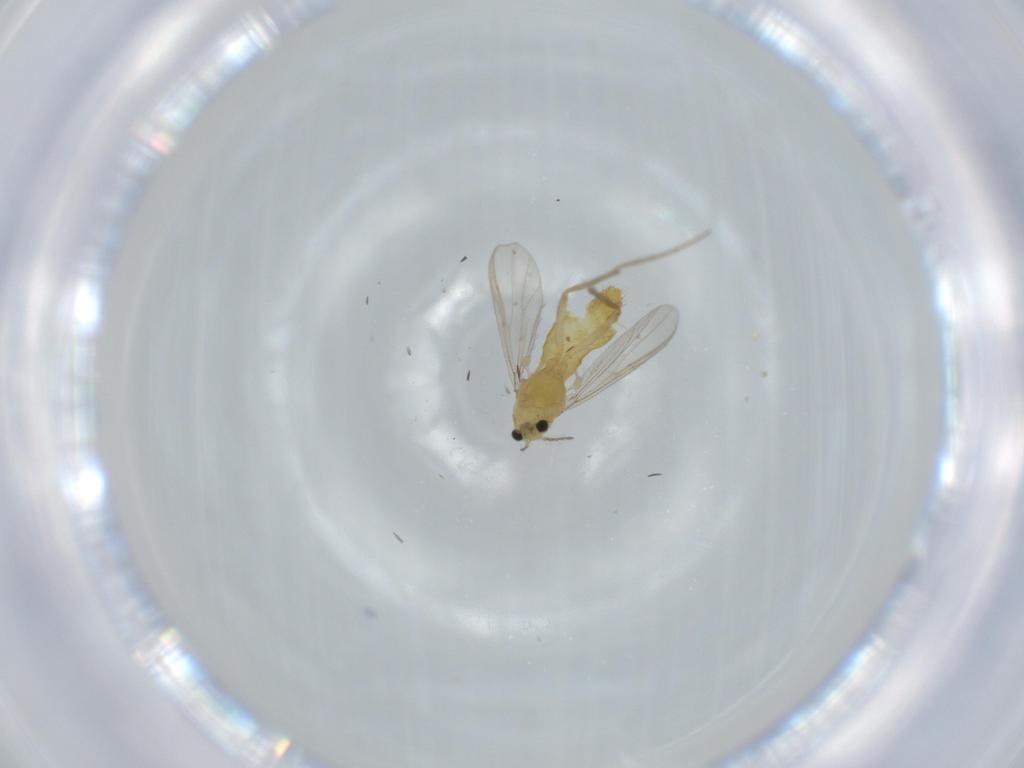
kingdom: Animalia
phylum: Arthropoda
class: Insecta
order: Diptera
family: Chironomidae
